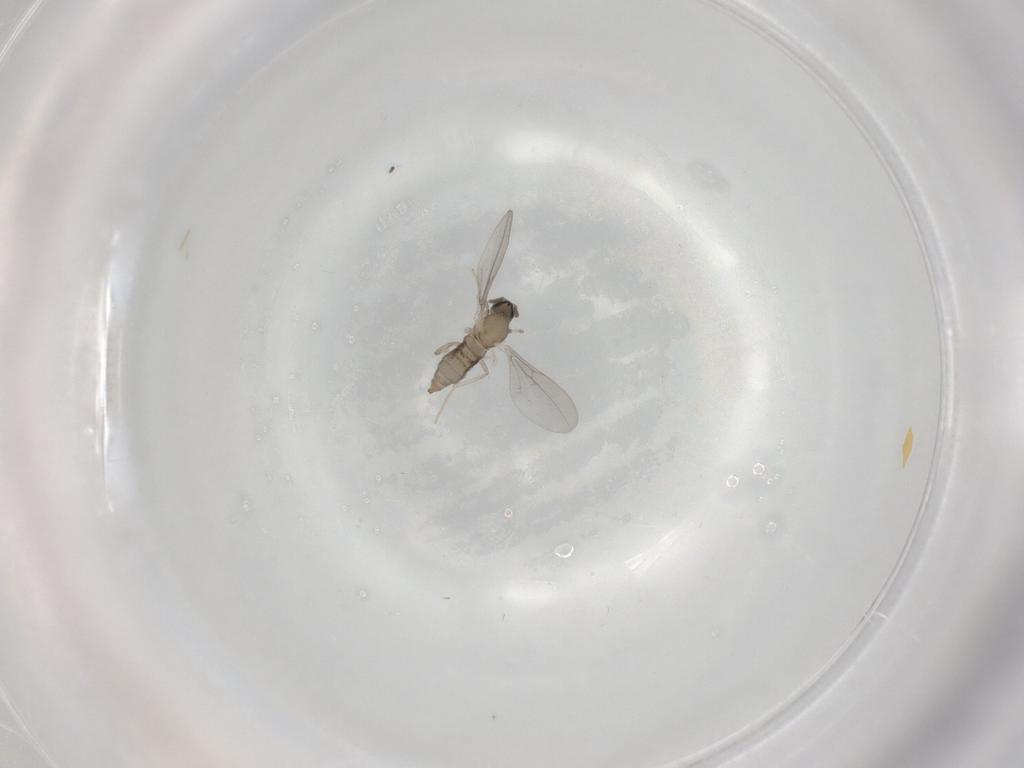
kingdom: Animalia
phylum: Arthropoda
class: Insecta
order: Diptera
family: Cecidomyiidae
